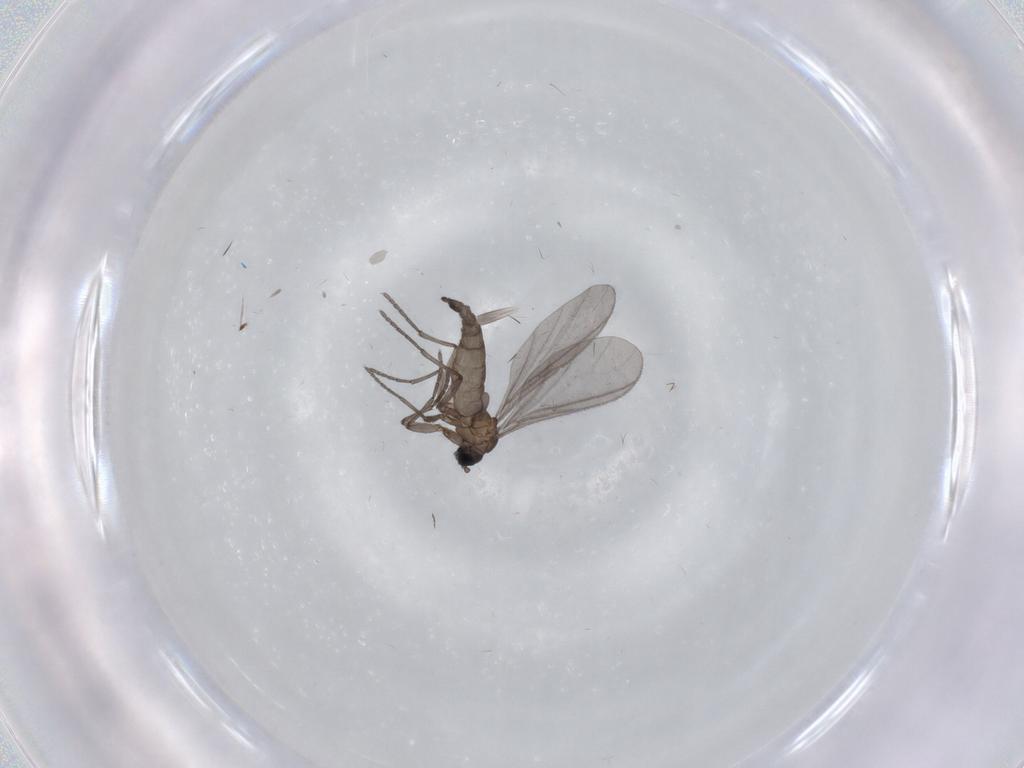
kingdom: Animalia
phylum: Arthropoda
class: Insecta
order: Diptera
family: Sciaridae
